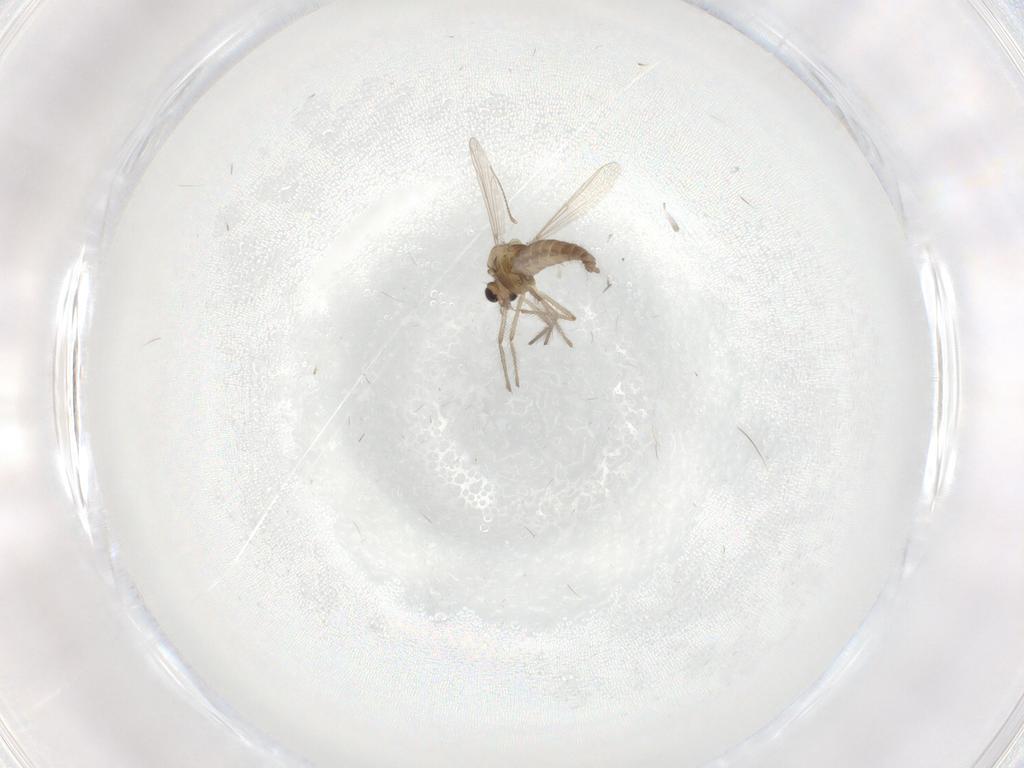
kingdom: Animalia
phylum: Arthropoda
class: Insecta
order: Diptera
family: Chironomidae
